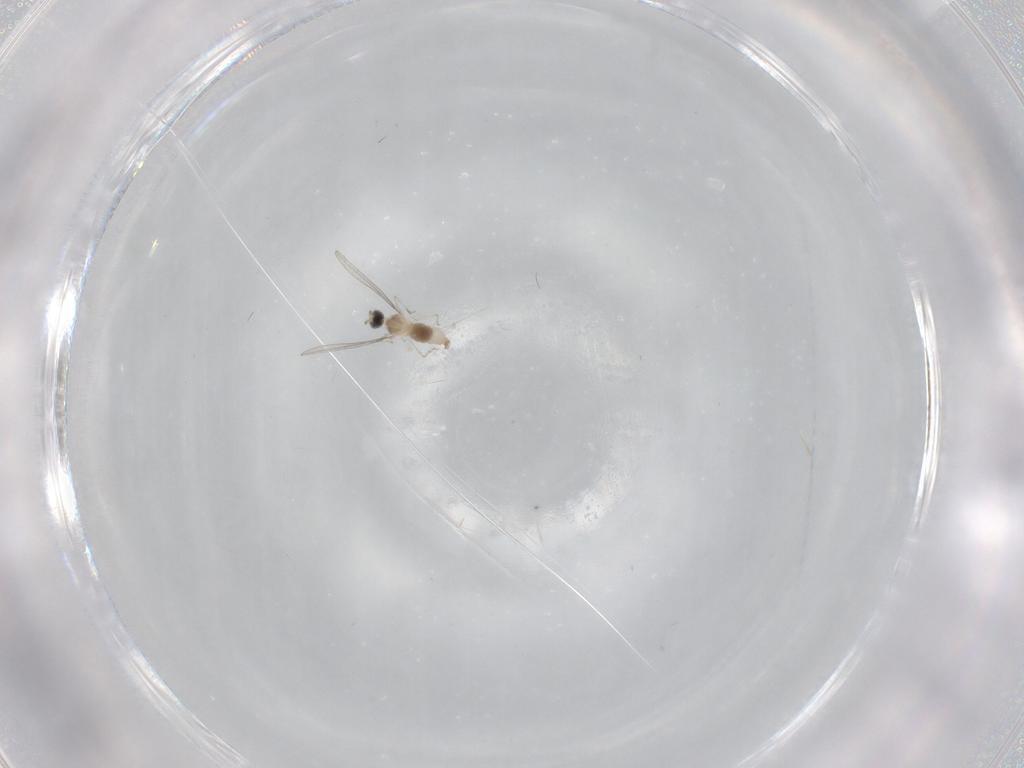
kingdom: Animalia
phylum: Arthropoda
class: Insecta
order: Diptera
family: Cecidomyiidae
